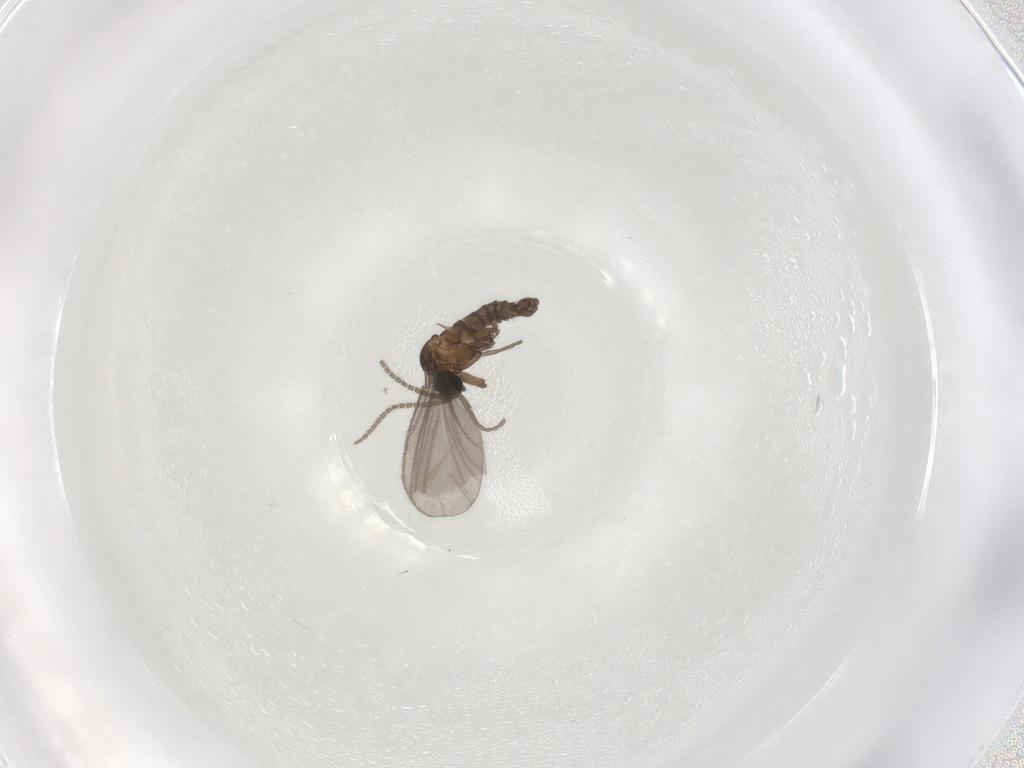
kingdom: Animalia
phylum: Arthropoda
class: Insecta
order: Diptera
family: Sciaridae
